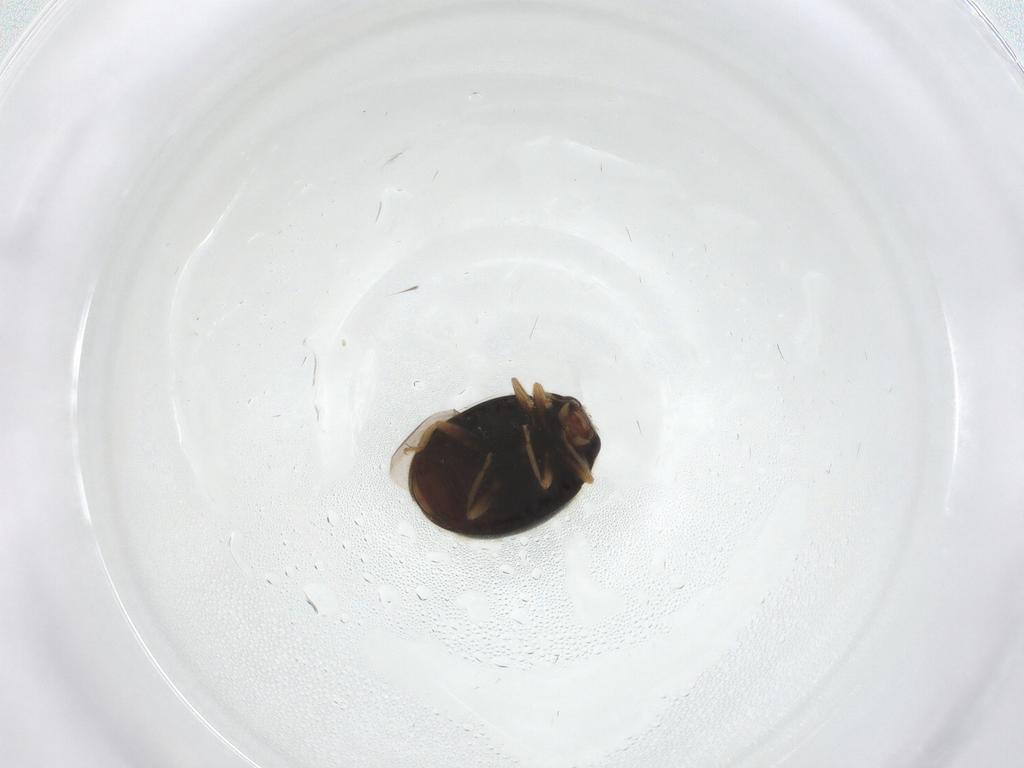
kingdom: Animalia
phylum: Arthropoda
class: Insecta
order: Coleoptera
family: Coccinellidae
